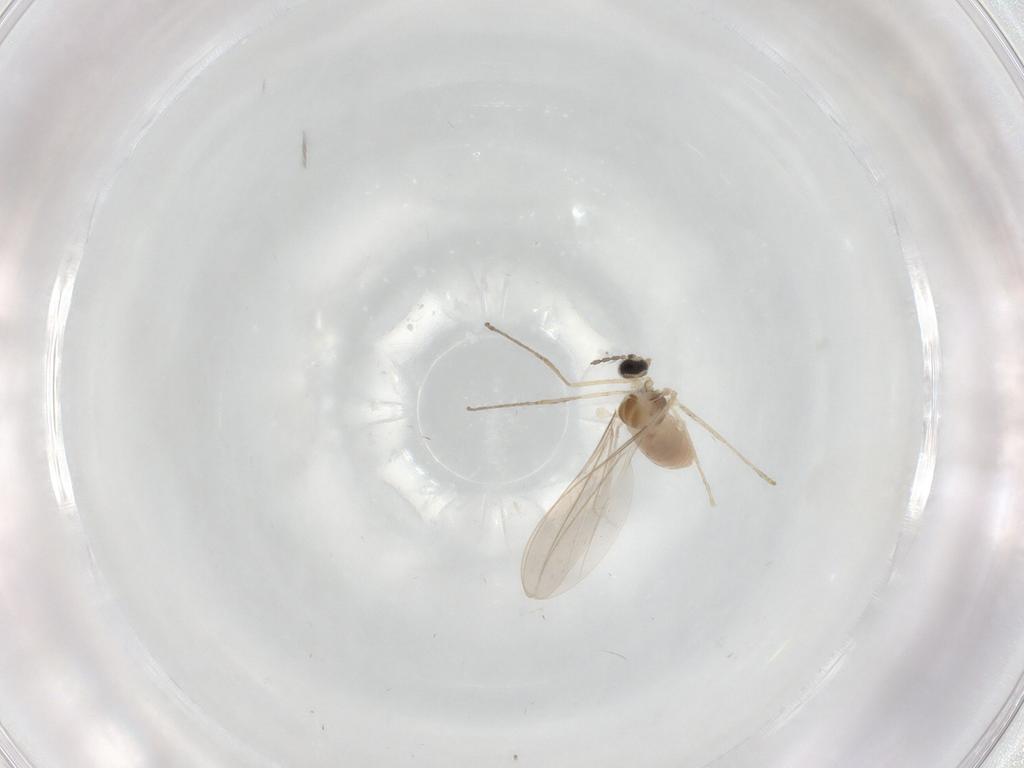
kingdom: Animalia
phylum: Arthropoda
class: Insecta
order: Diptera
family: Cecidomyiidae
